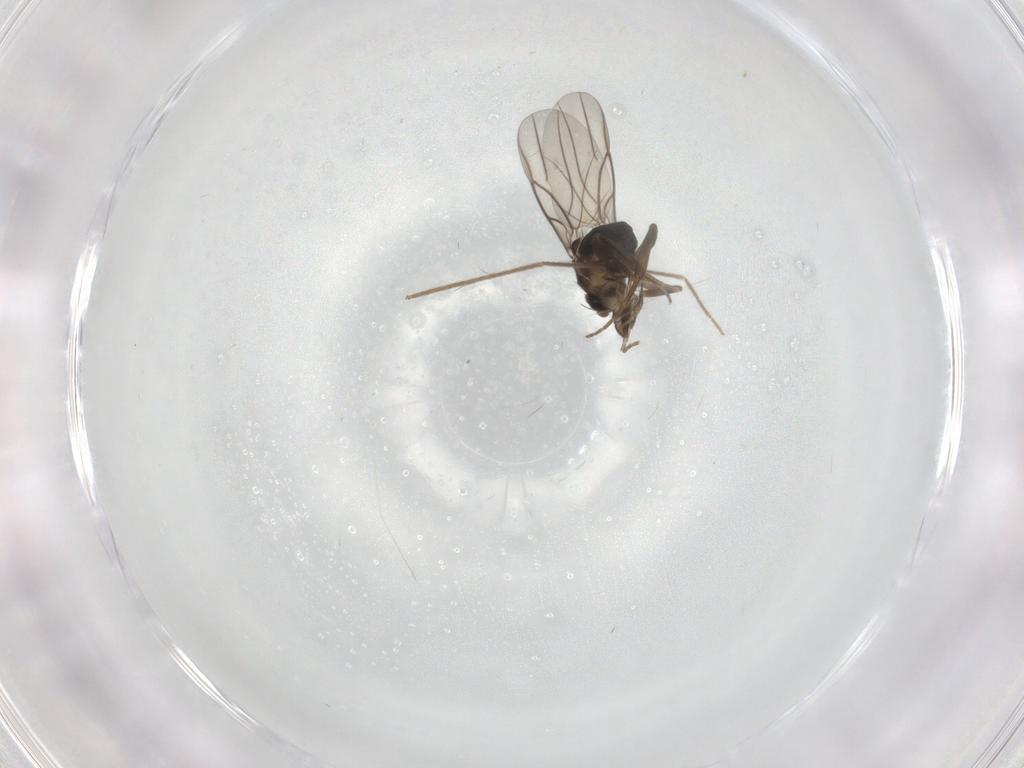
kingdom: Animalia
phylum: Arthropoda
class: Insecta
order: Diptera
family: Phoridae
